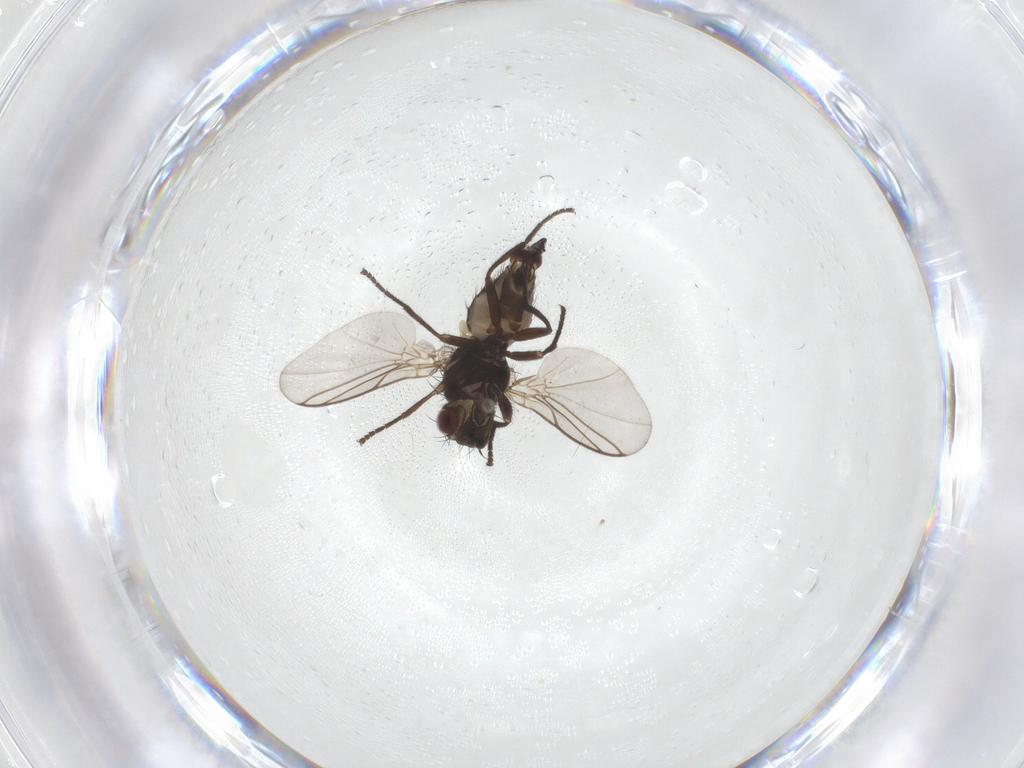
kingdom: Animalia
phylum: Arthropoda
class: Insecta
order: Diptera
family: Agromyzidae
